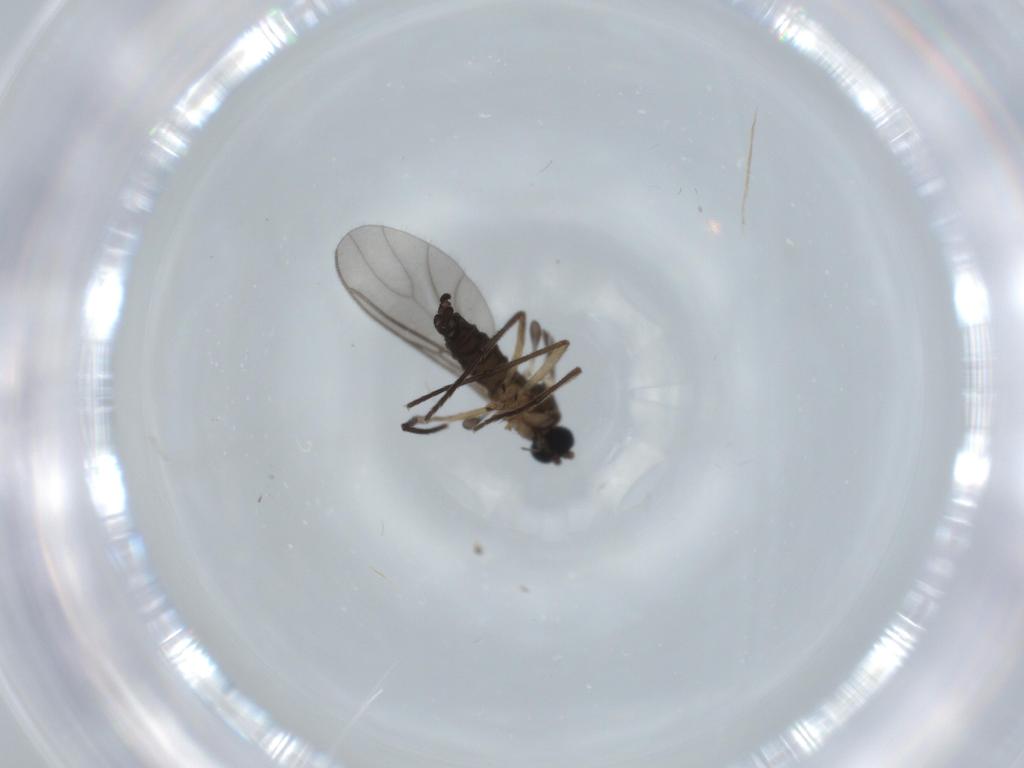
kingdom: Animalia
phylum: Arthropoda
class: Insecta
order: Diptera
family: Sciaridae
